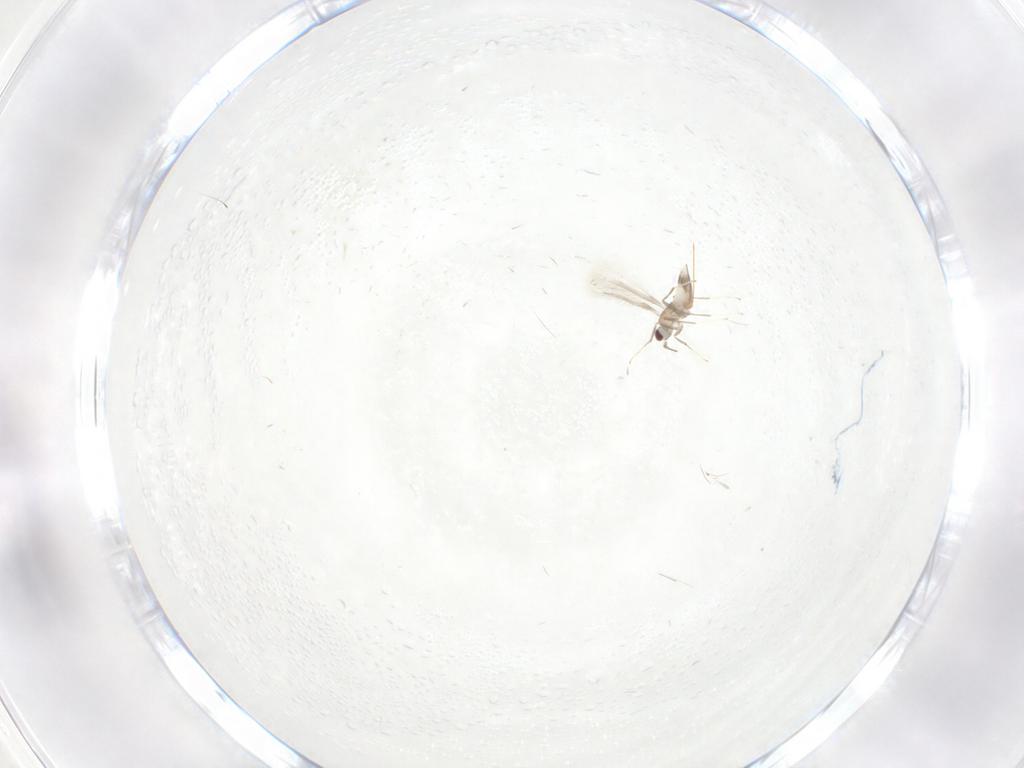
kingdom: Animalia
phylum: Arthropoda
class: Insecta
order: Hymenoptera
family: Mymaridae
